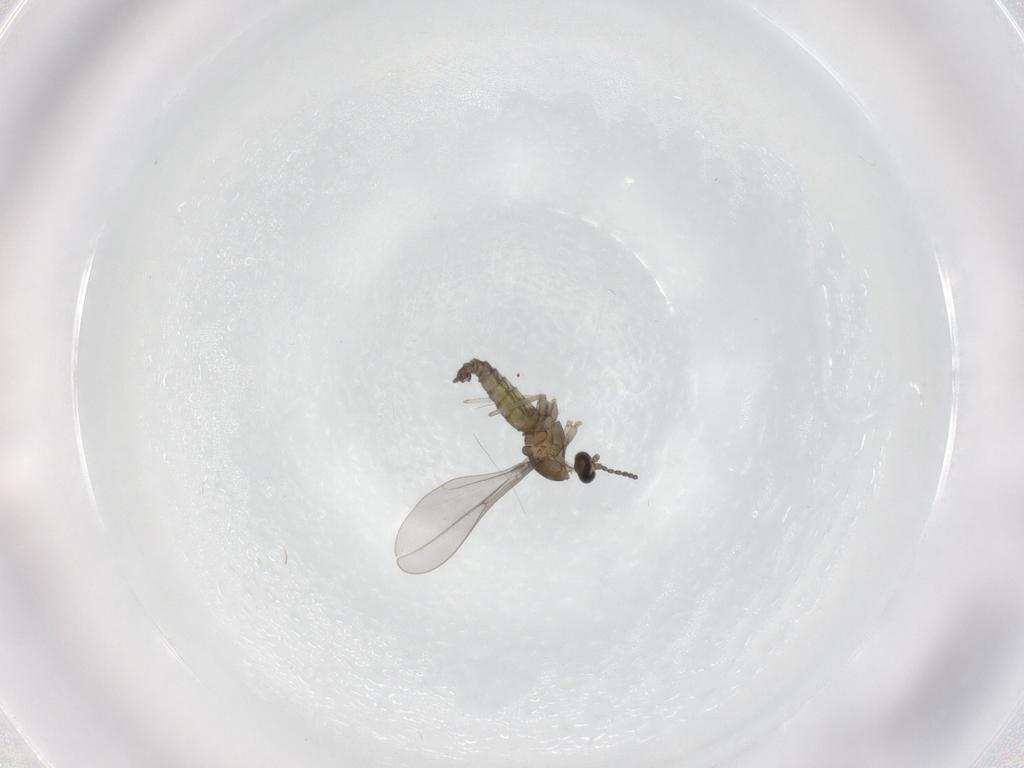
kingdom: Animalia
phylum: Arthropoda
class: Insecta
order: Diptera
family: Cecidomyiidae
